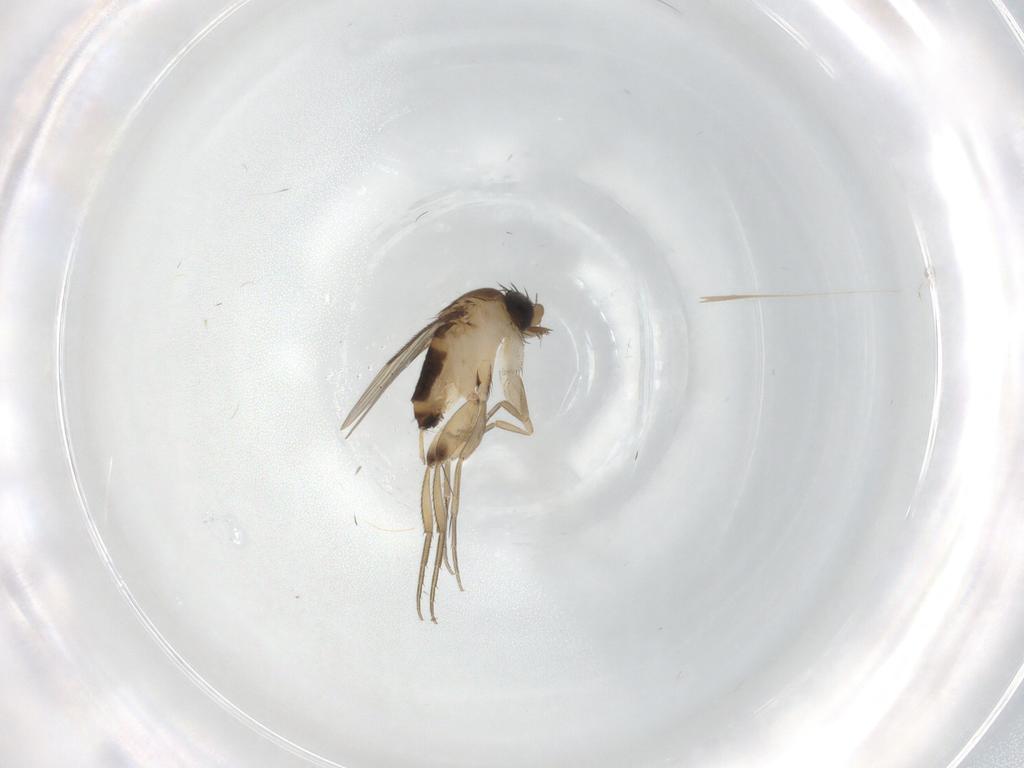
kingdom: Animalia
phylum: Arthropoda
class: Insecta
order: Diptera
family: Phoridae
